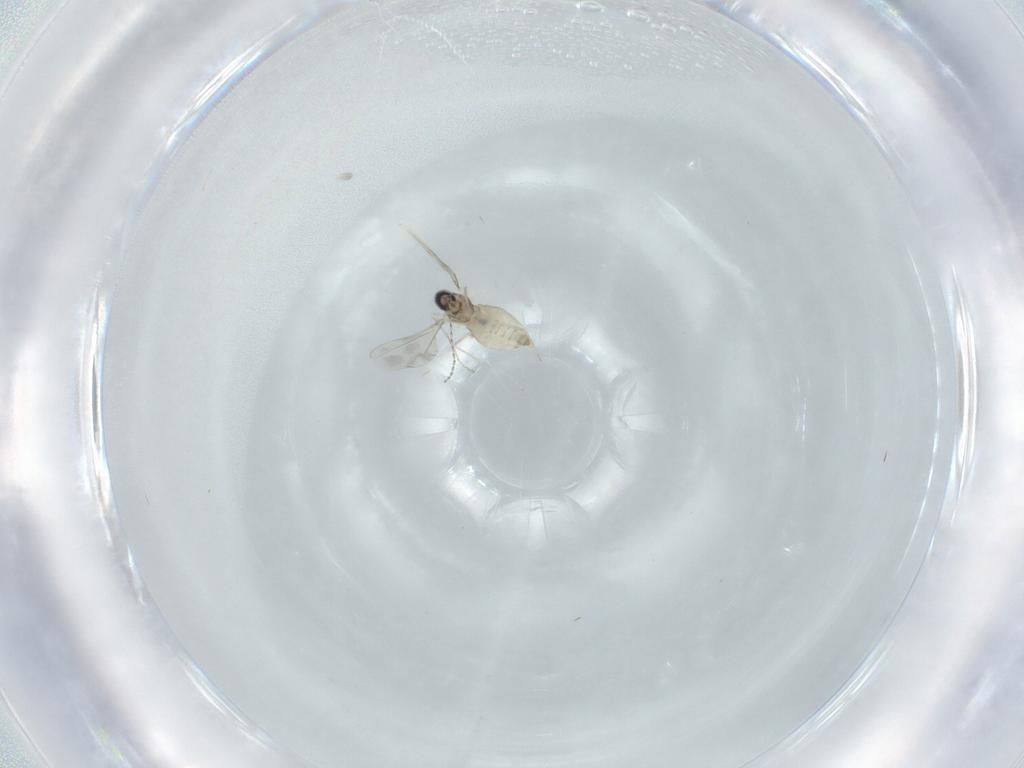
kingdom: Animalia
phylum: Arthropoda
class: Insecta
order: Diptera
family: Cecidomyiidae
